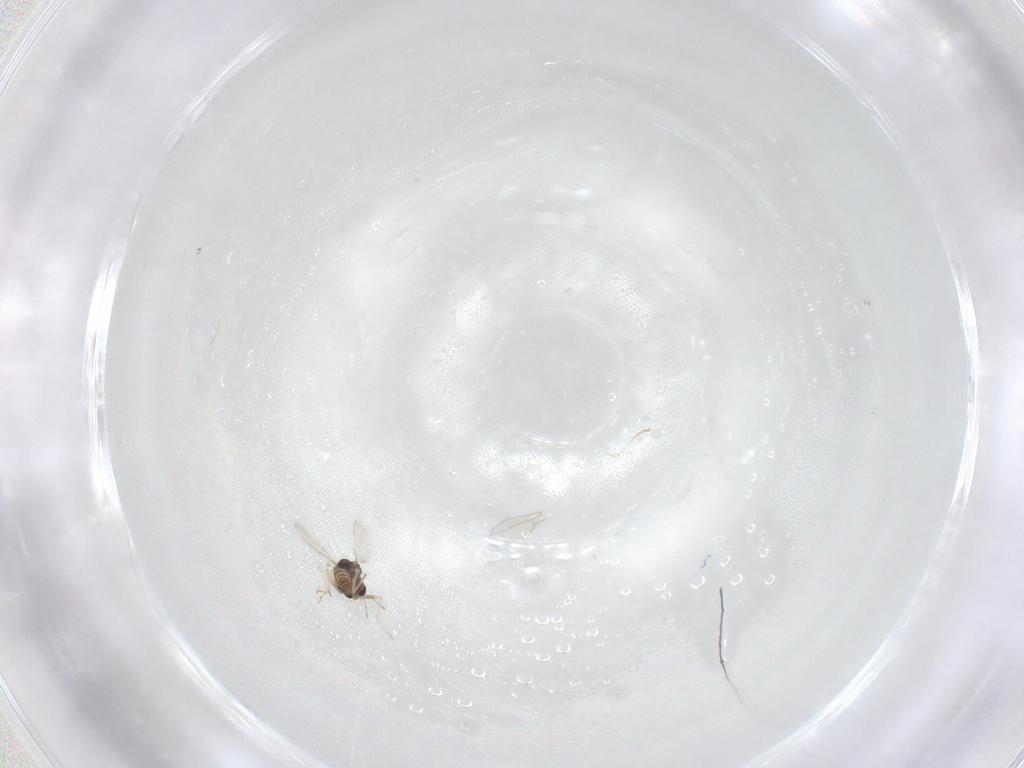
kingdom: Animalia
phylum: Arthropoda
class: Insecta
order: Diptera
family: Chironomidae
